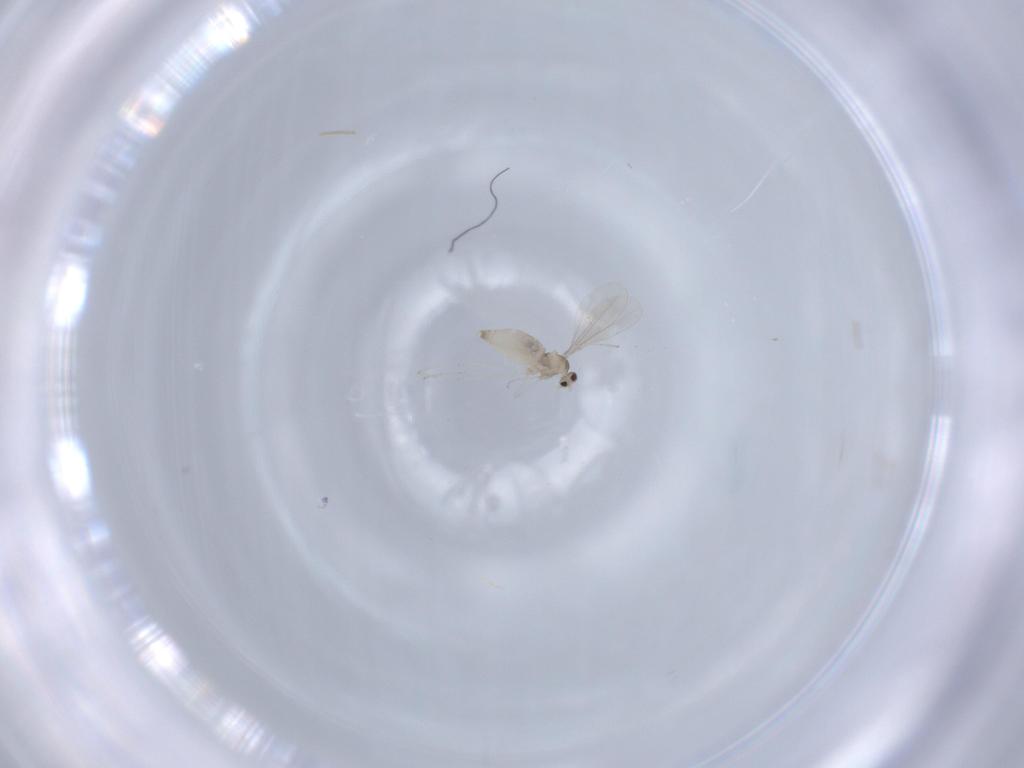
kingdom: Animalia
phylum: Arthropoda
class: Insecta
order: Diptera
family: Cecidomyiidae
